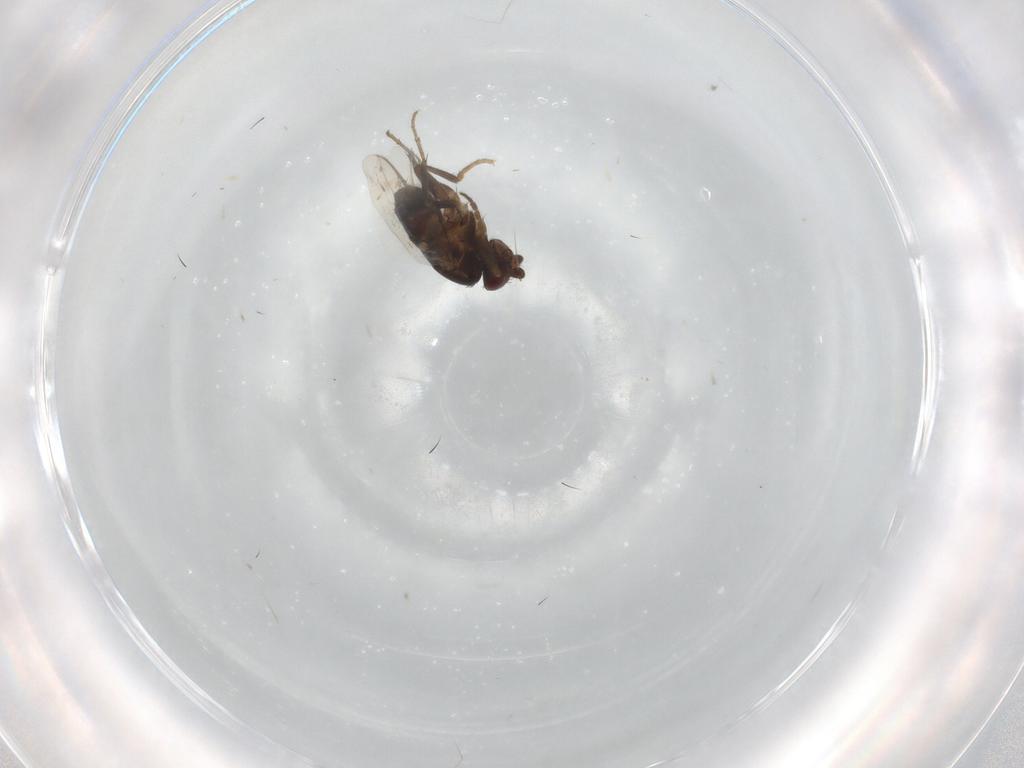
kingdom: Animalia
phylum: Arthropoda
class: Insecta
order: Diptera
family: Sphaeroceridae
